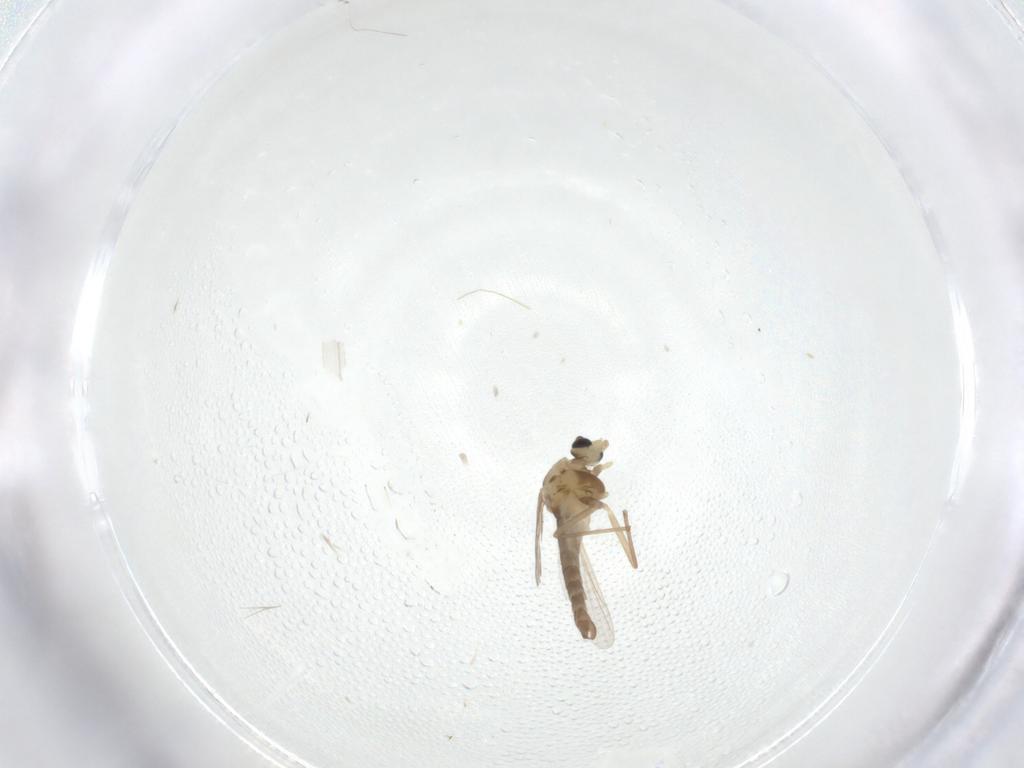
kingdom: Animalia
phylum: Arthropoda
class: Insecta
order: Diptera
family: Chironomidae
